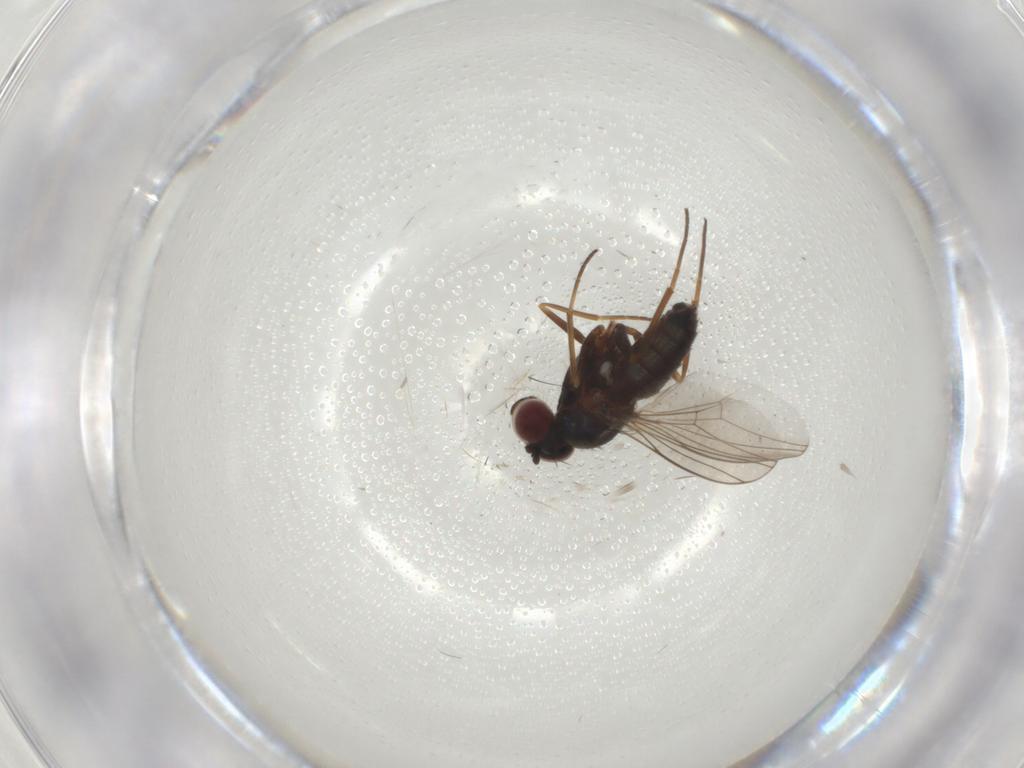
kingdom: Animalia
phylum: Arthropoda
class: Insecta
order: Diptera
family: Dolichopodidae
